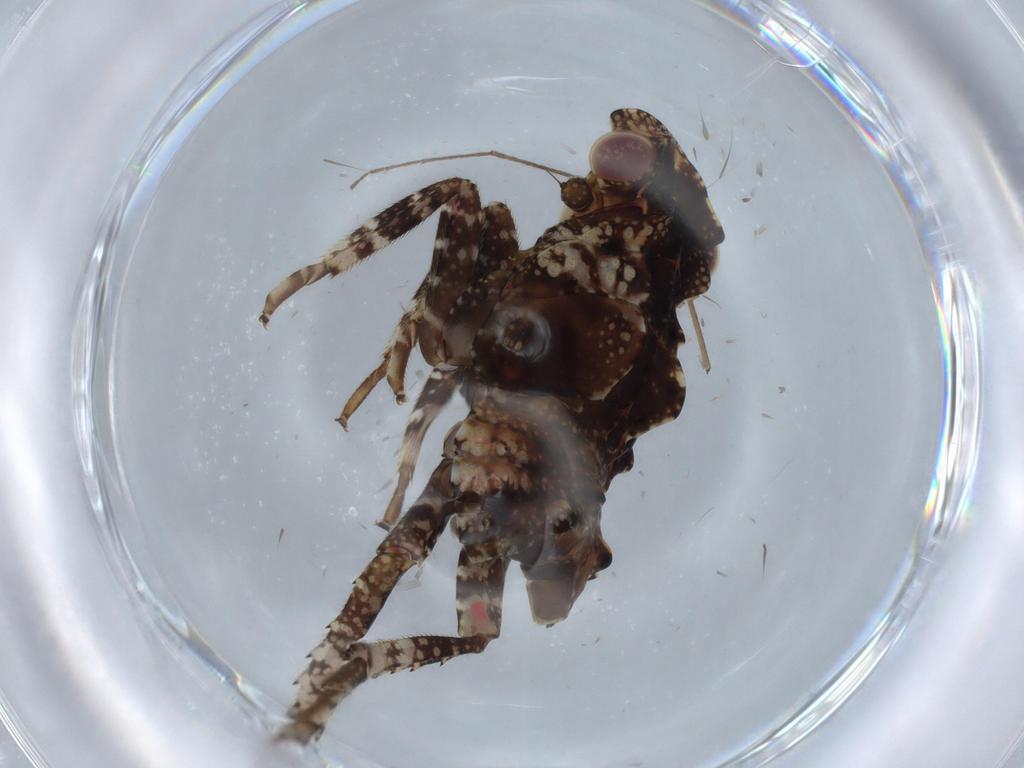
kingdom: Animalia
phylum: Arthropoda
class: Insecta
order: Hemiptera
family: Fulgoridae
